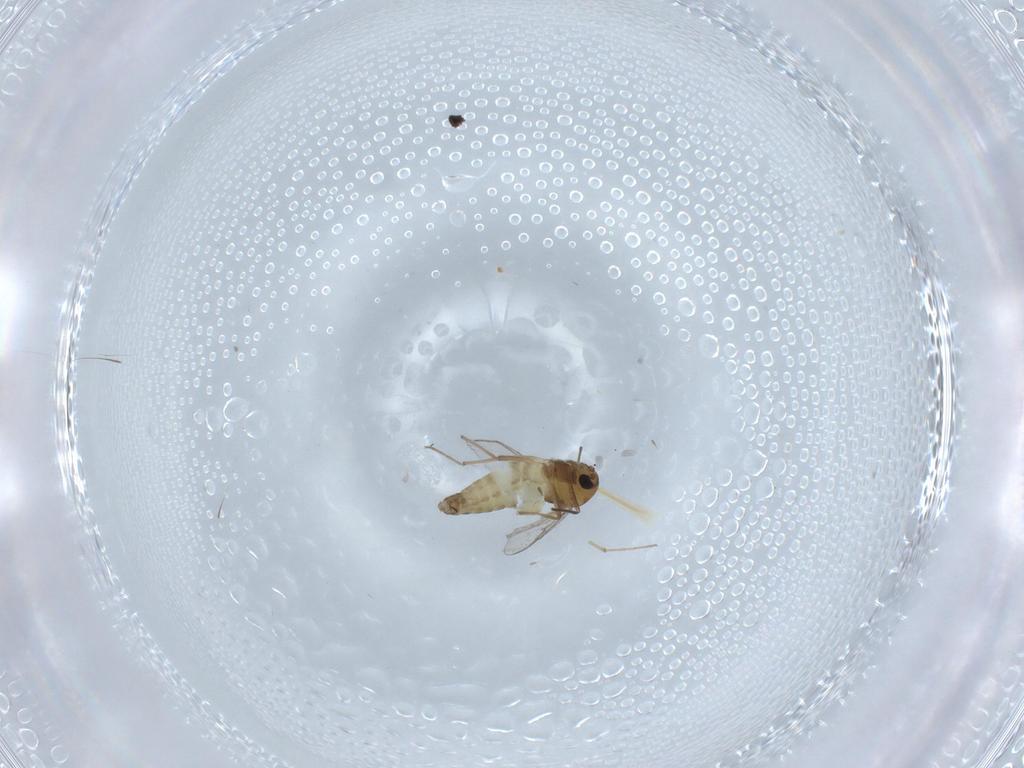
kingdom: Animalia
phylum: Arthropoda
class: Insecta
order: Diptera
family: Chironomidae
